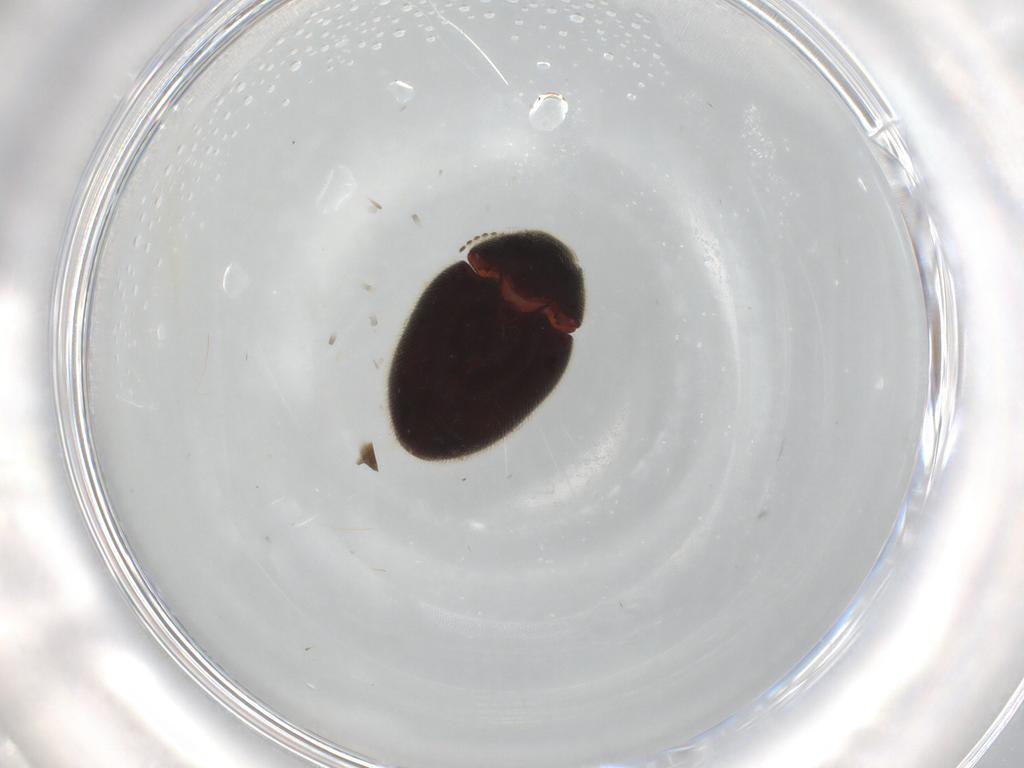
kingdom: Animalia
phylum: Arthropoda
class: Insecta
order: Coleoptera
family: Limnichidae
